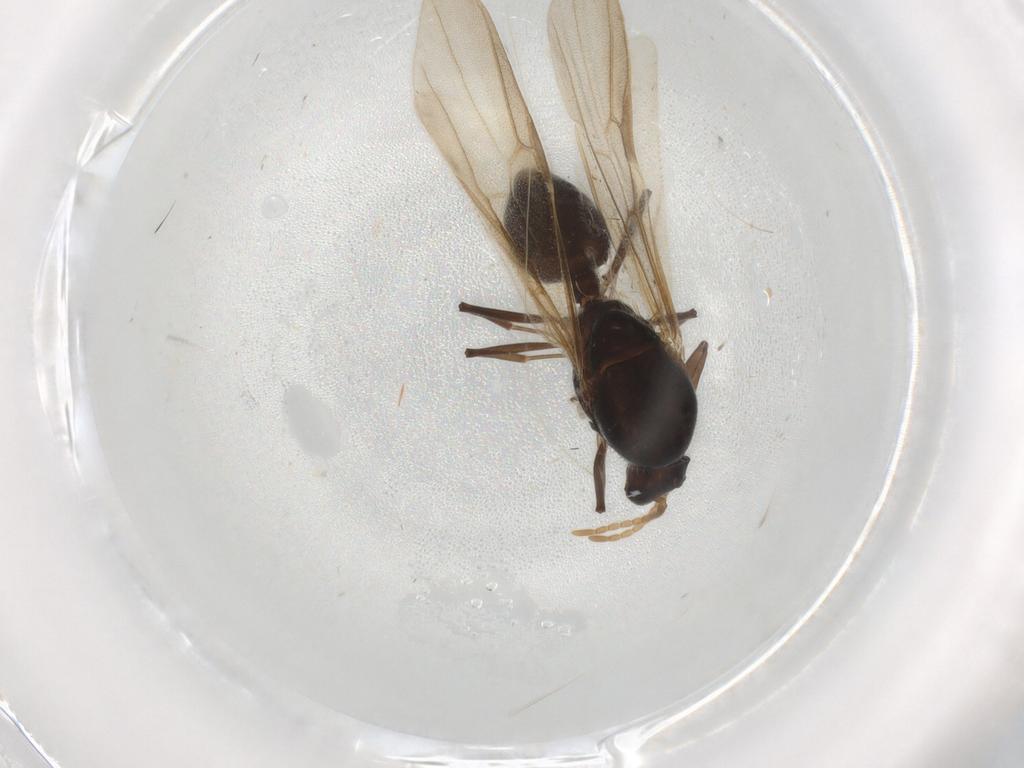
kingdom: Animalia
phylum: Arthropoda
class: Insecta
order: Hymenoptera
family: Formicidae
